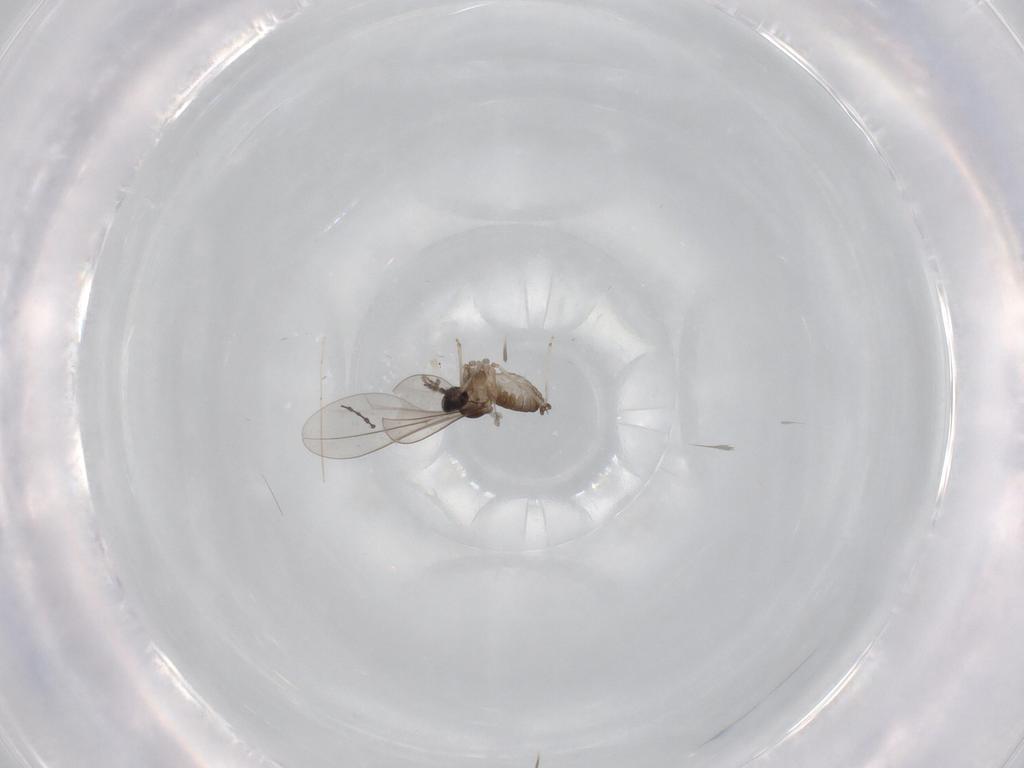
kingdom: Animalia
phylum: Arthropoda
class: Insecta
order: Diptera
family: Cecidomyiidae
